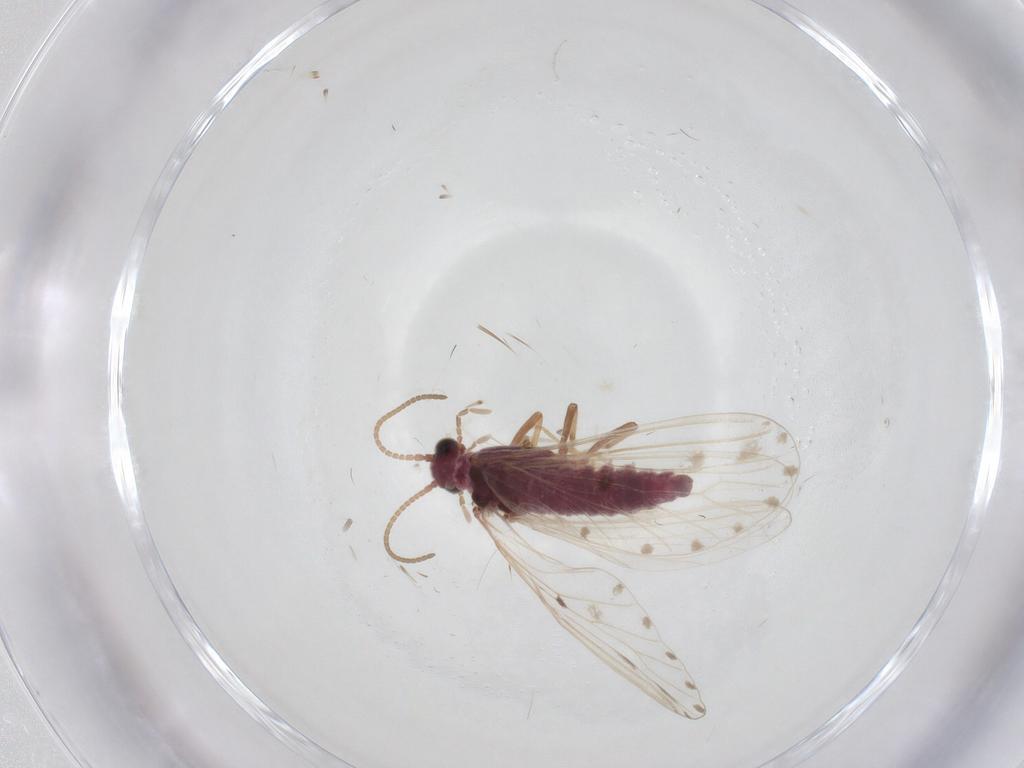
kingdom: Animalia
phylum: Arthropoda
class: Insecta
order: Neuroptera
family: Coniopterygidae
